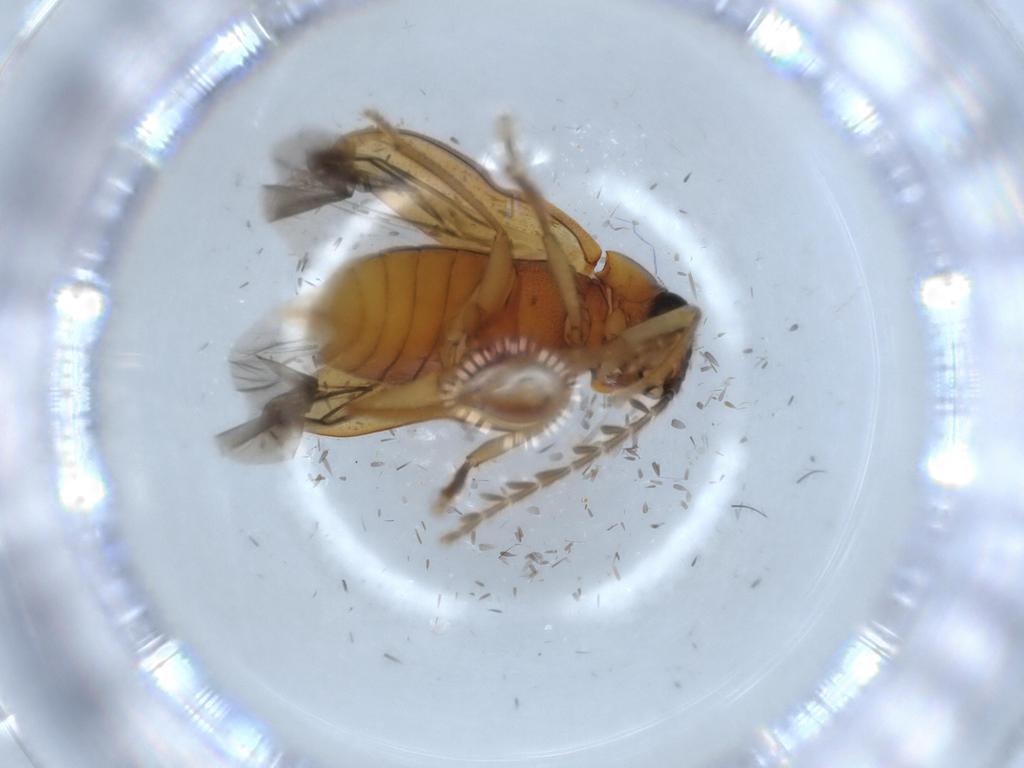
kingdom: Animalia
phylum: Arthropoda
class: Insecta
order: Coleoptera
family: Ptilodactylidae
